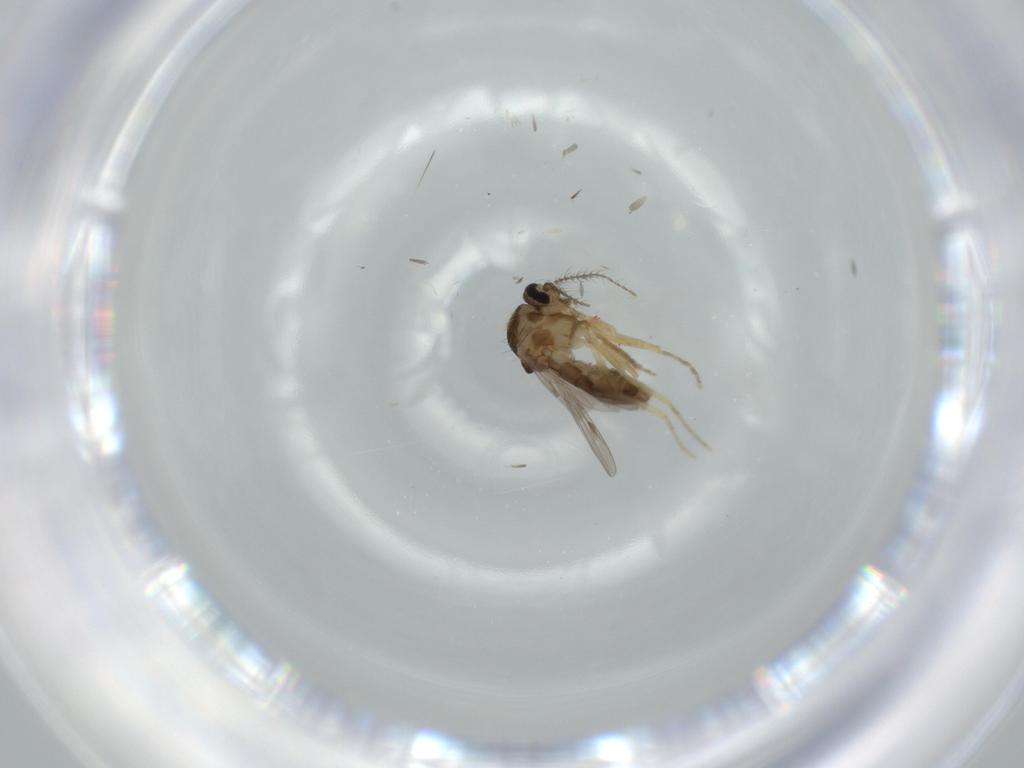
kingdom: Animalia
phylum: Arthropoda
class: Insecta
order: Diptera
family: Ceratopogonidae
